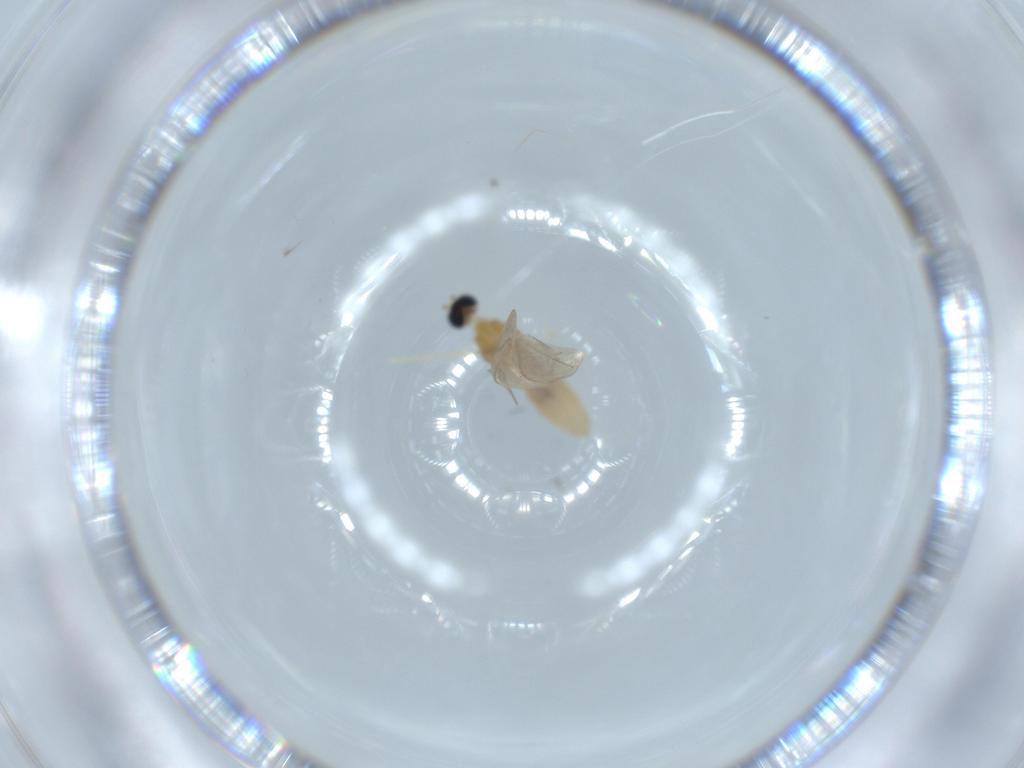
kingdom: Animalia
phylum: Arthropoda
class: Insecta
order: Diptera
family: Cecidomyiidae
